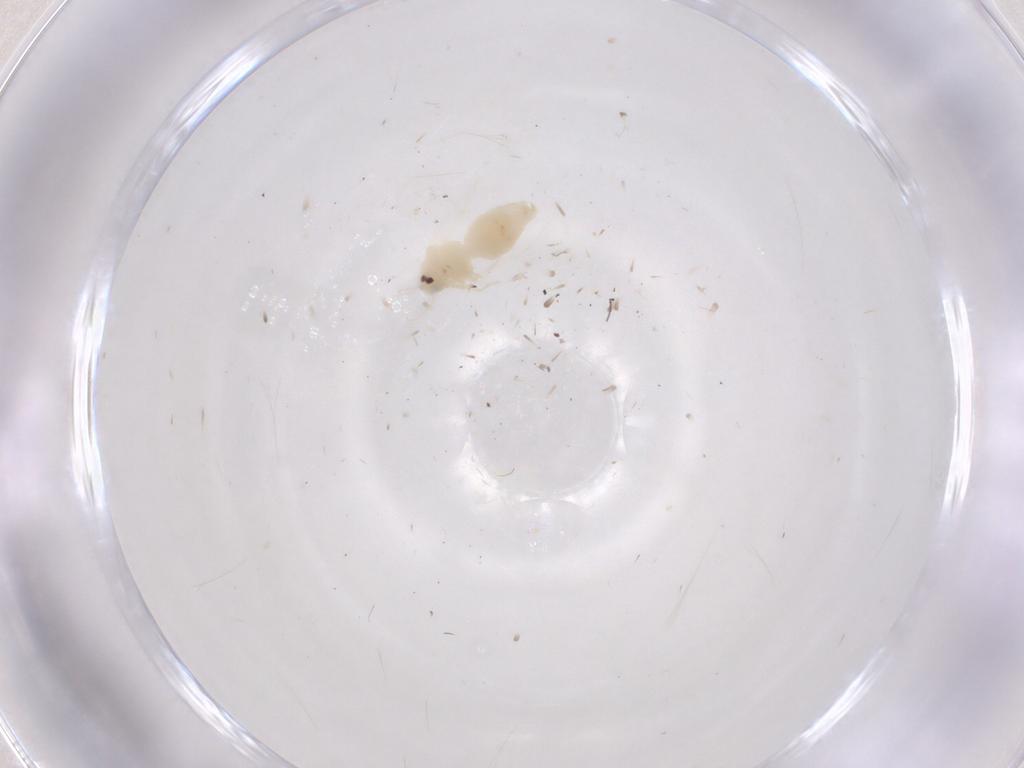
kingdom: Animalia
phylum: Arthropoda
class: Insecta
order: Hemiptera
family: Aleyrodidae
